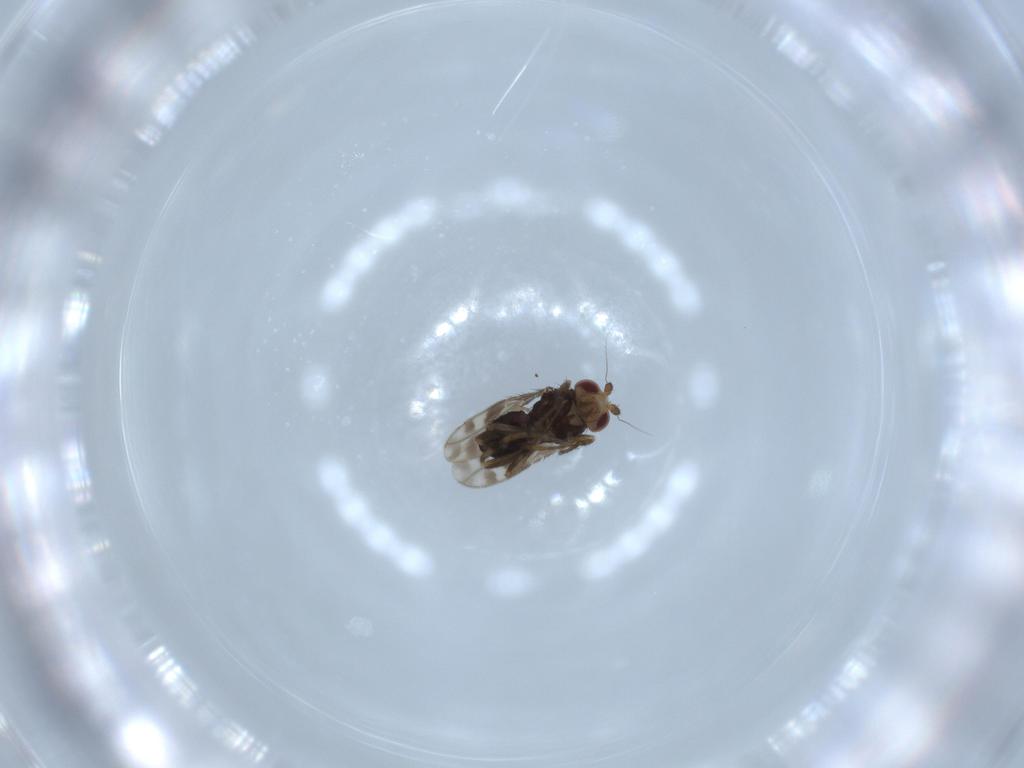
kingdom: Animalia
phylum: Arthropoda
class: Insecta
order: Diptera
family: Sphaeroceridae
